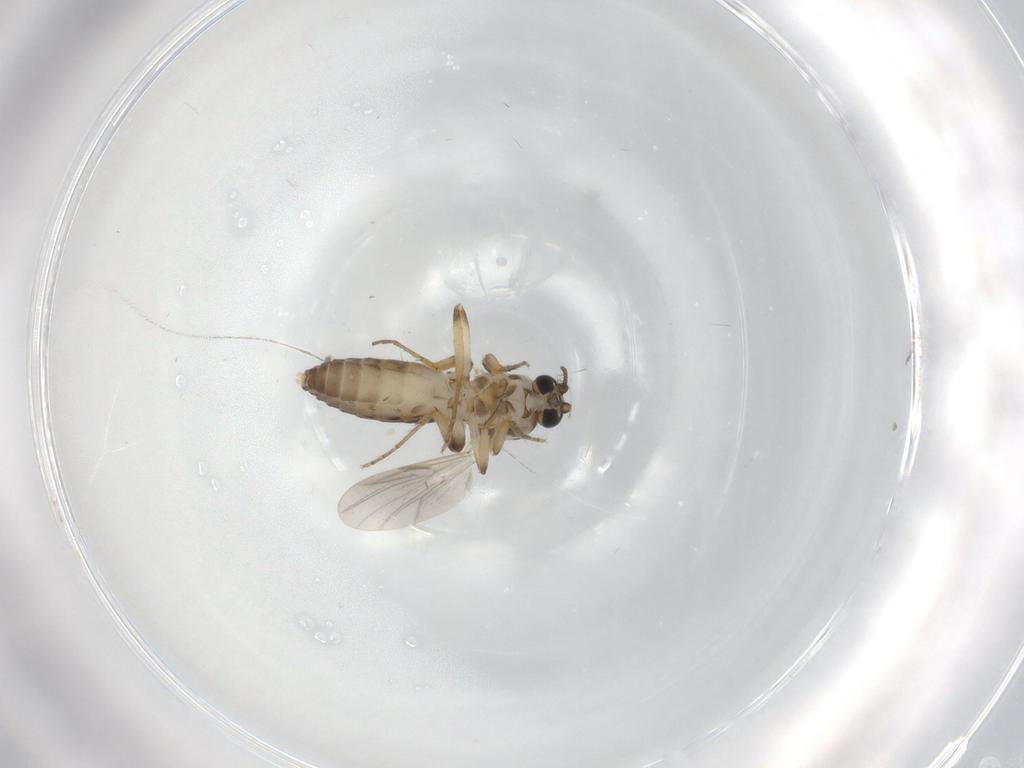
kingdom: Animalia
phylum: Arthropoda
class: Insecta
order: Diptera
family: Ceratopogonidae
